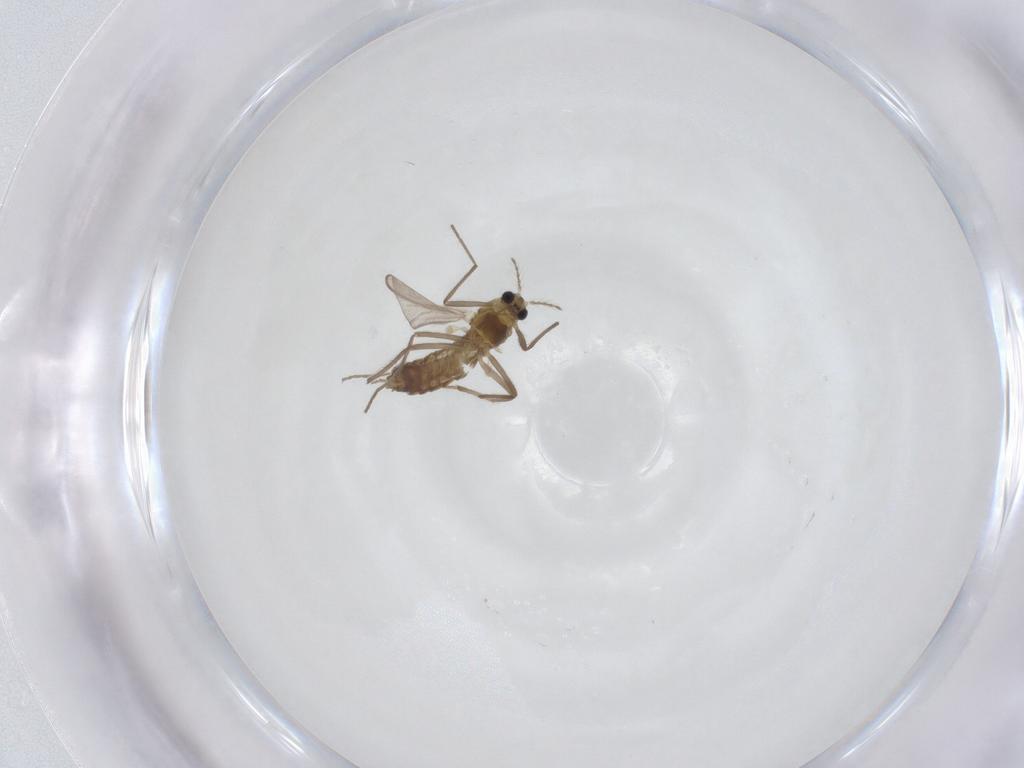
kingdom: Animalia
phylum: Arthropoda
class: Insecta
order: Diptera
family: Chironomidae
